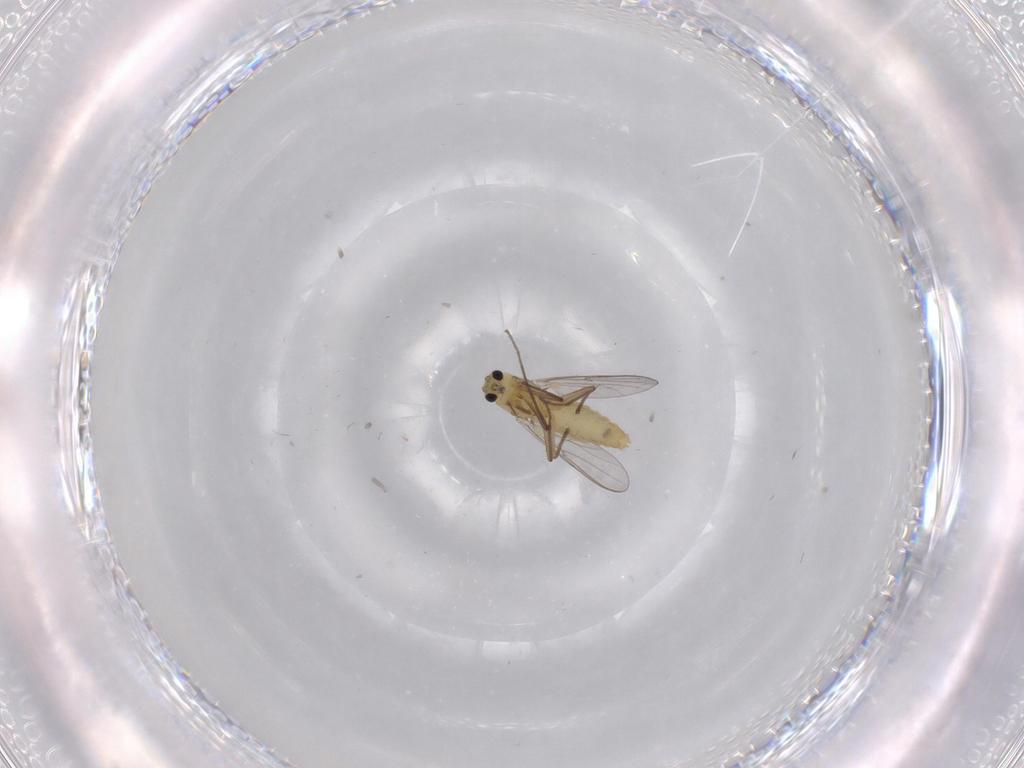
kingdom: Animalia
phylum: Arthropoda
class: Insecta
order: Diptera
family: Chironomidae
